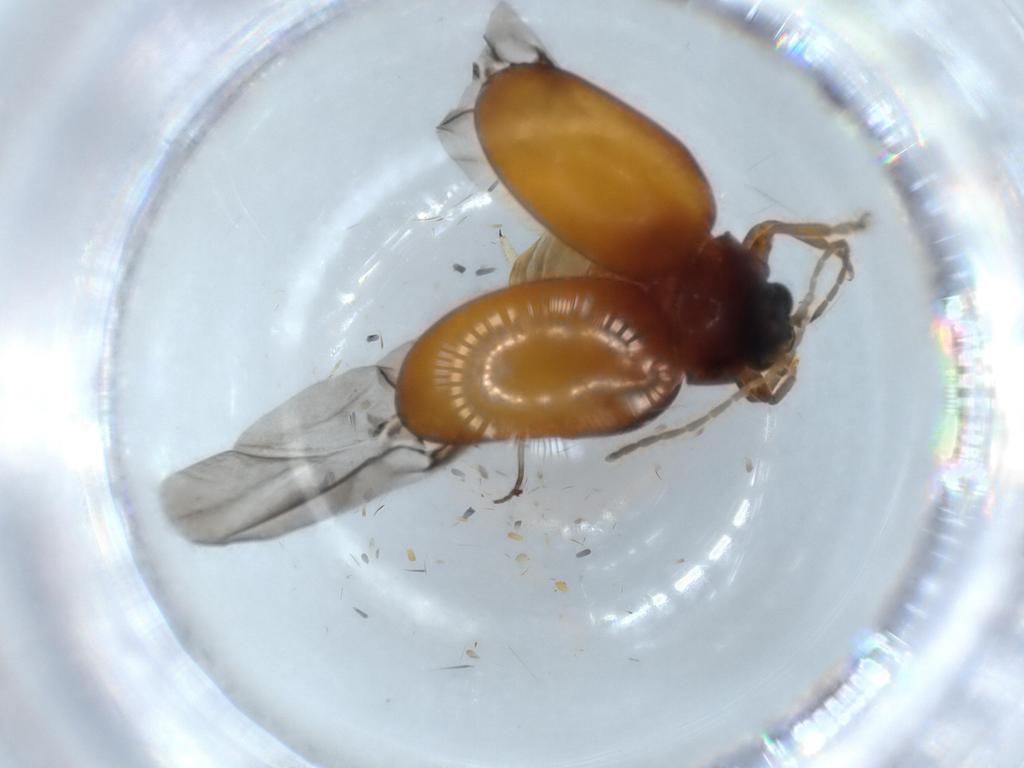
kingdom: Animalia
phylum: Arthropoda
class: Insecta
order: Coleoptera
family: Chrysomelidae
